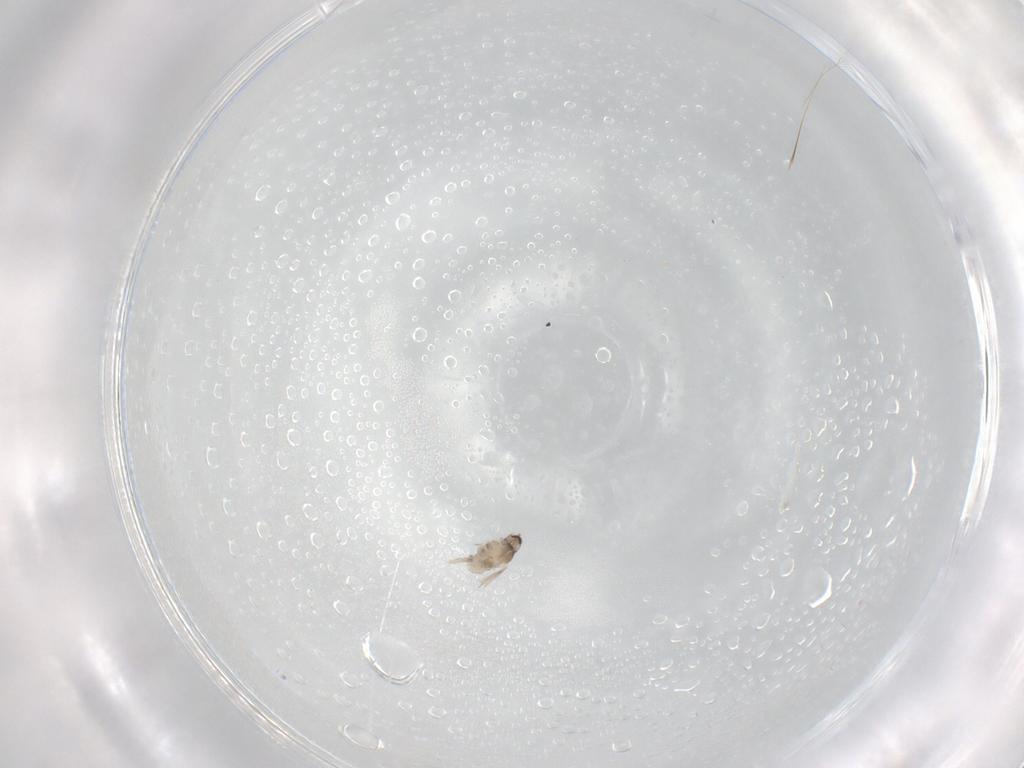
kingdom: Animalia
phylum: Arthropoda
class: Insecta
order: Diptera
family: Cecidomyiidae
